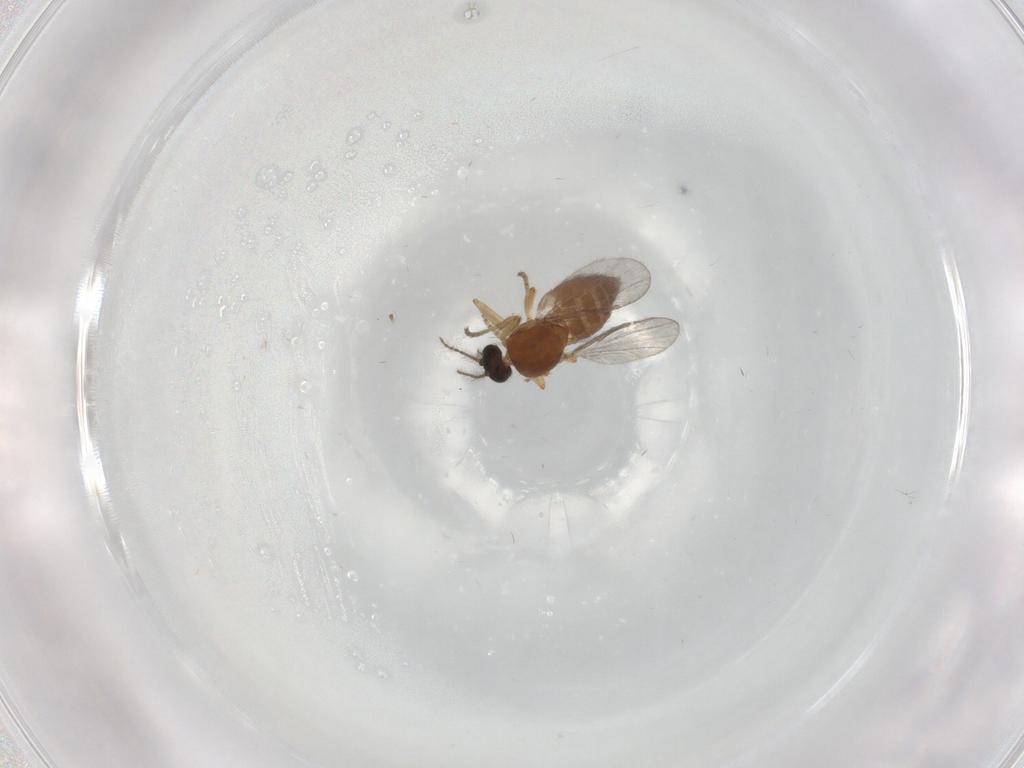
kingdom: Animalia
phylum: Arthropoda
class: Insecta
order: Diptera
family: Ceratopogonidae
